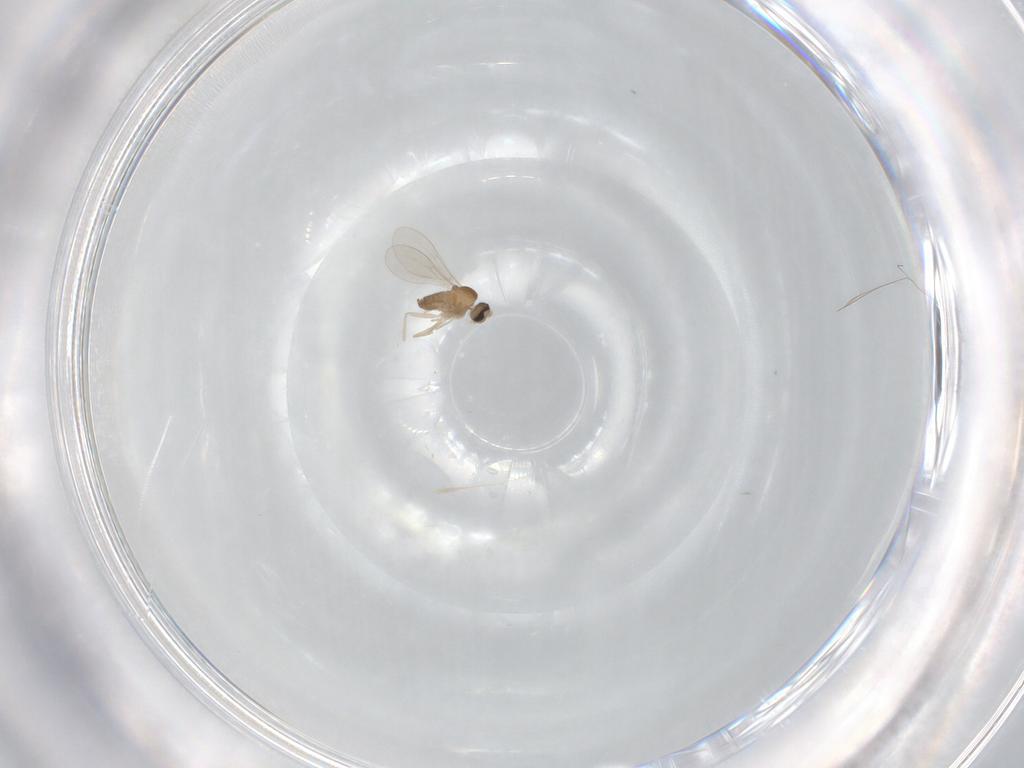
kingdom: Animalia
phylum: Arthropoda
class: Insecta
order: Diptera
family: Cecidomyiidae
